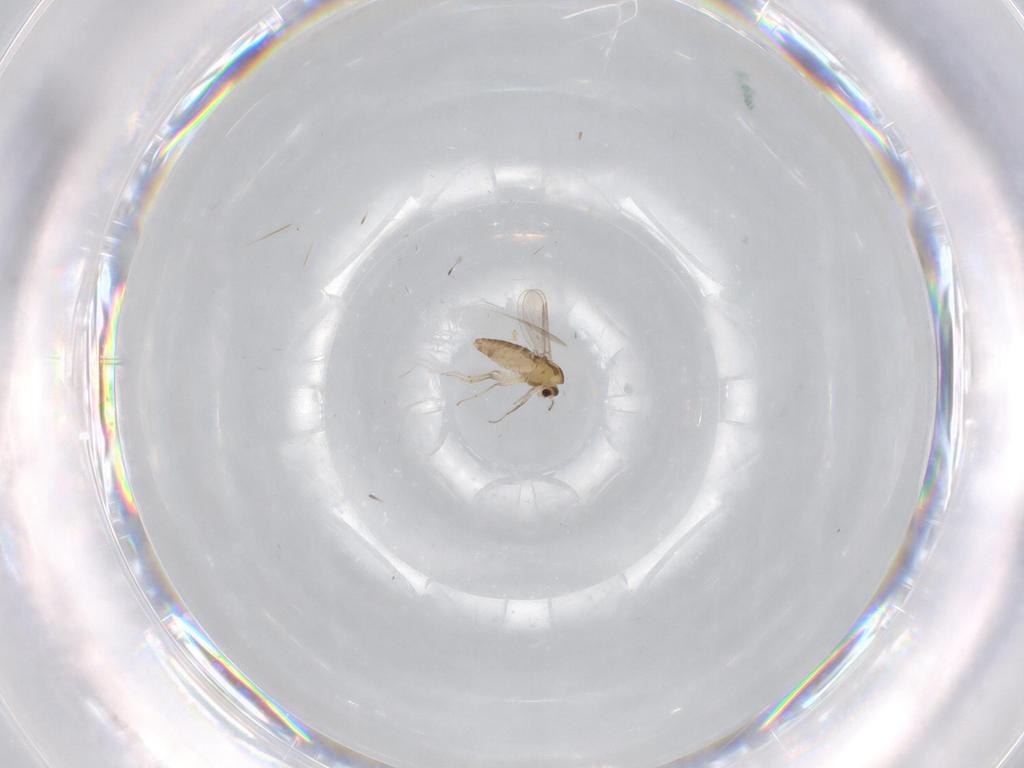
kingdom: Animalia
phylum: Arthropoda
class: Insecta
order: Diptera
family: Chironomidae
